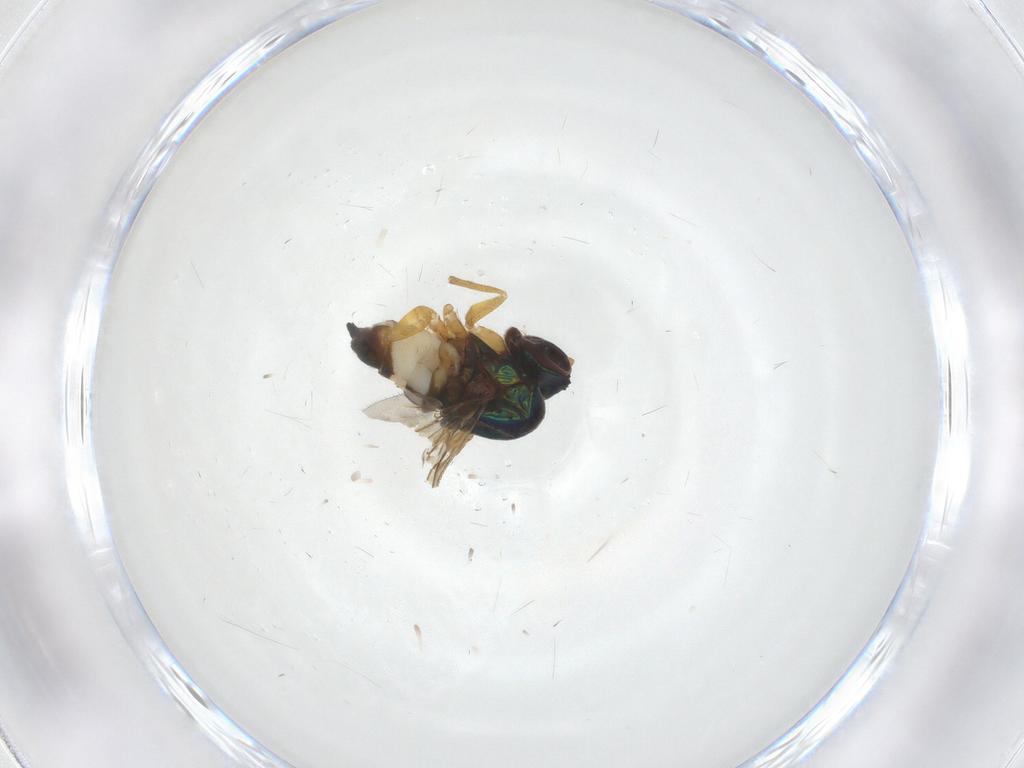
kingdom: Animalia
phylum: Arthropoda
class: Insecta
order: Diptera
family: Dolichopodidae
